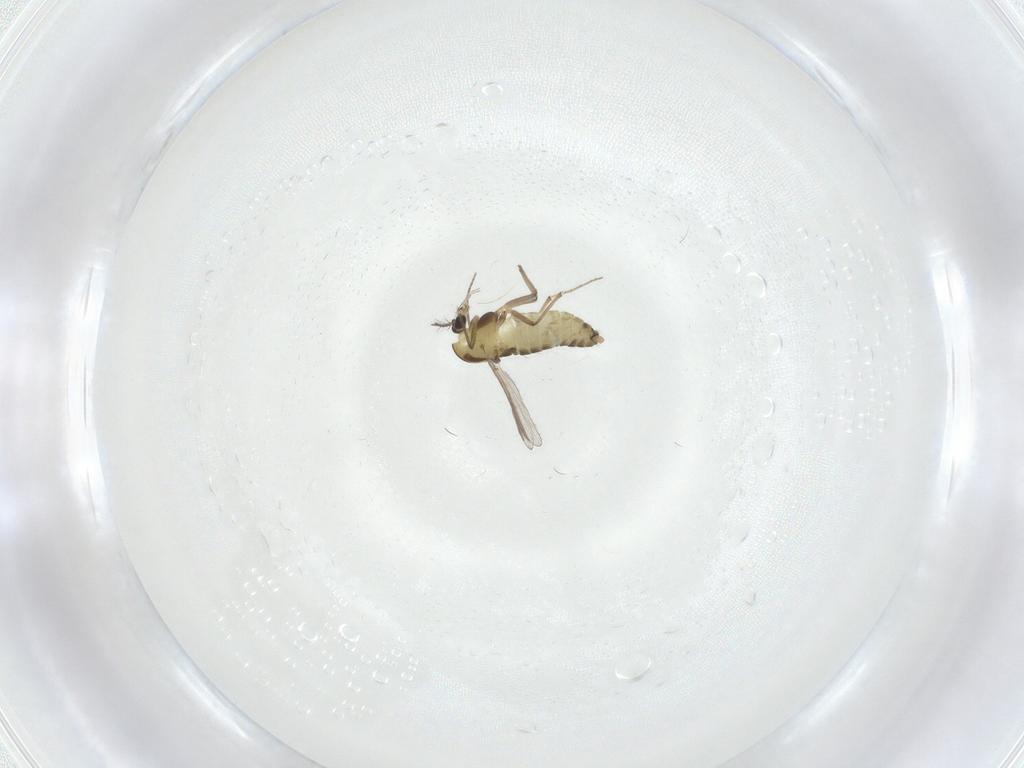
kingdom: Animalia
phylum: Arthropoda
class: Insecta
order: Diptera
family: Chironomidae
